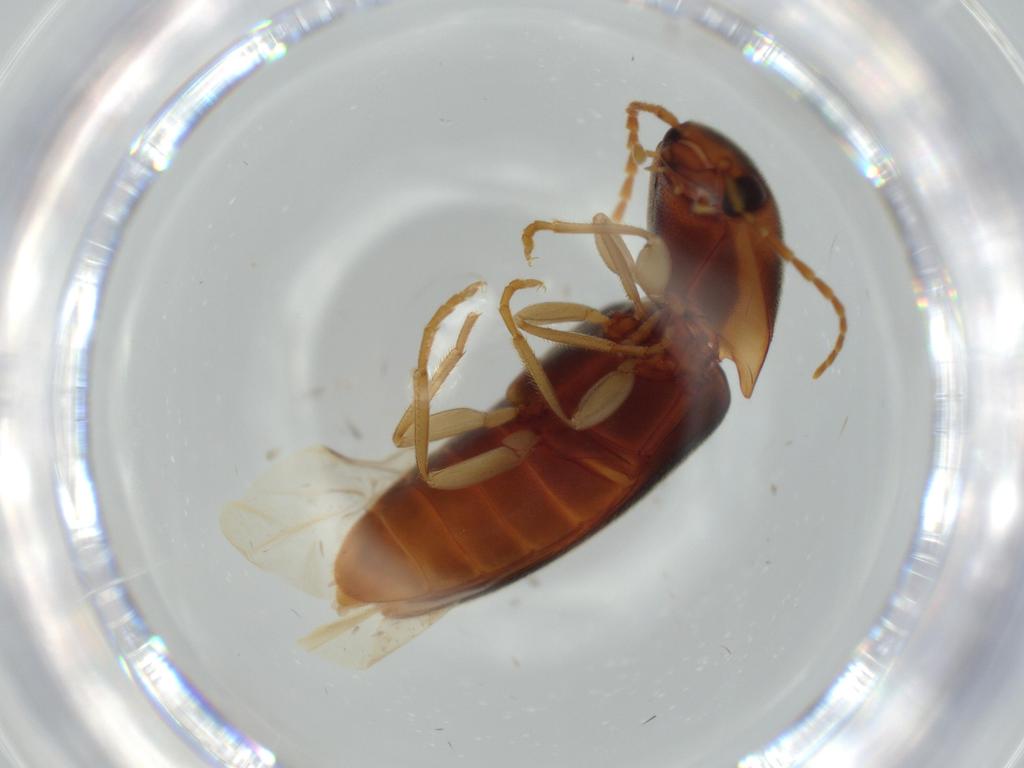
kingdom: Animalia
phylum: Arthropoda
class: Insecta
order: Coleoptera
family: Elateridae
